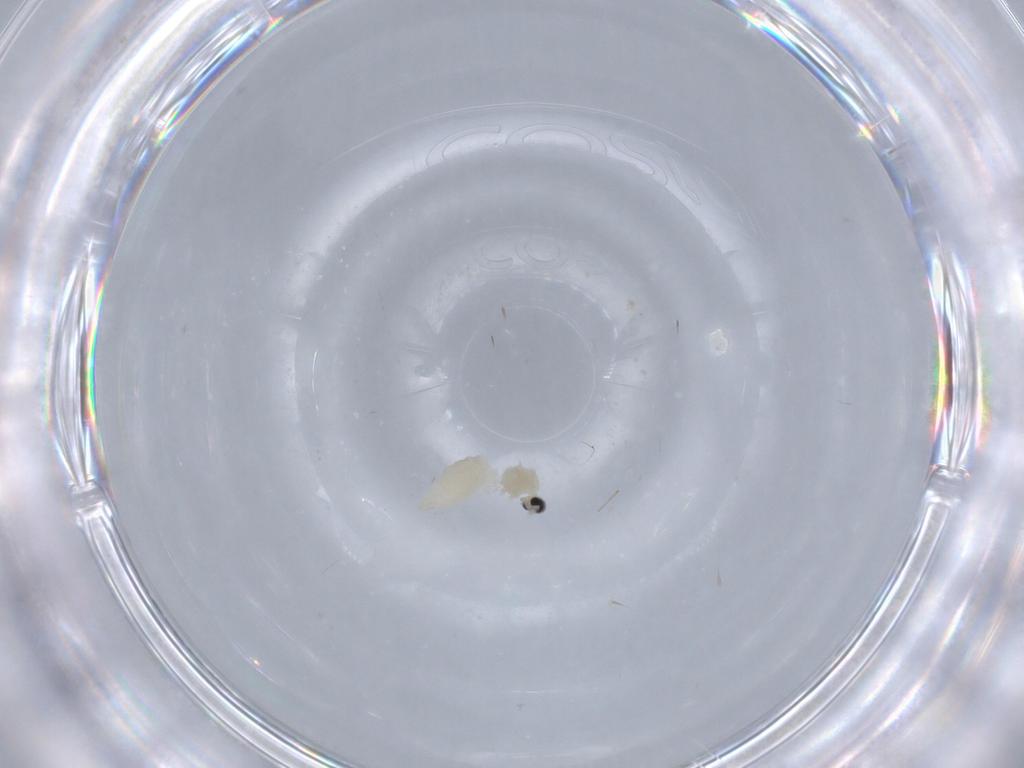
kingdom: Animalia
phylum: Arthropoda
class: Insecta
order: Diptera
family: Cecidomyiidae
